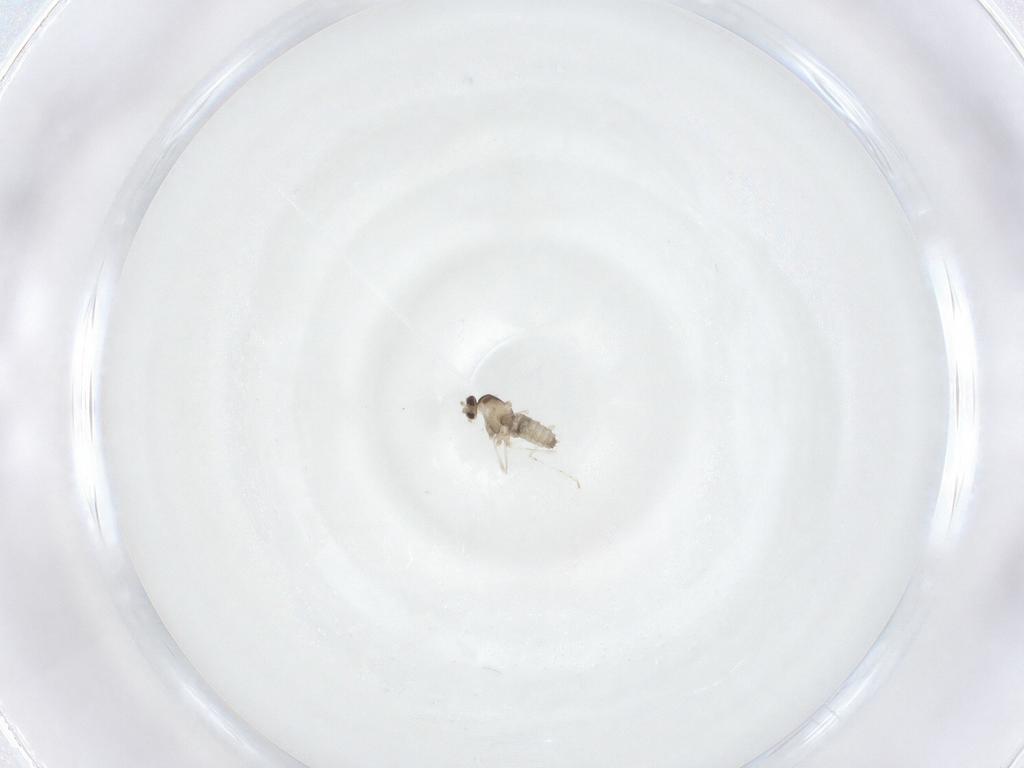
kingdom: Animalia
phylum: Arthropoda
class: Insecta
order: Diptera
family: Cecidomyiidae
